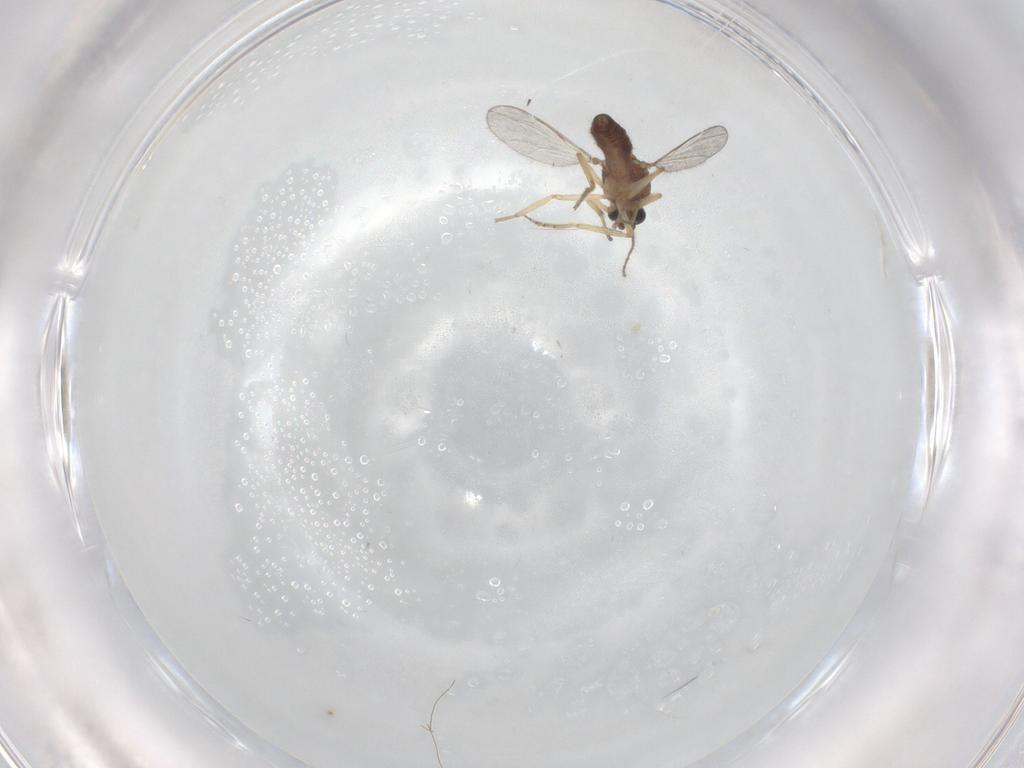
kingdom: Animalia
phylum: Arthropoda
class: Insecta
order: Diptera
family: Ceratopogonidae
